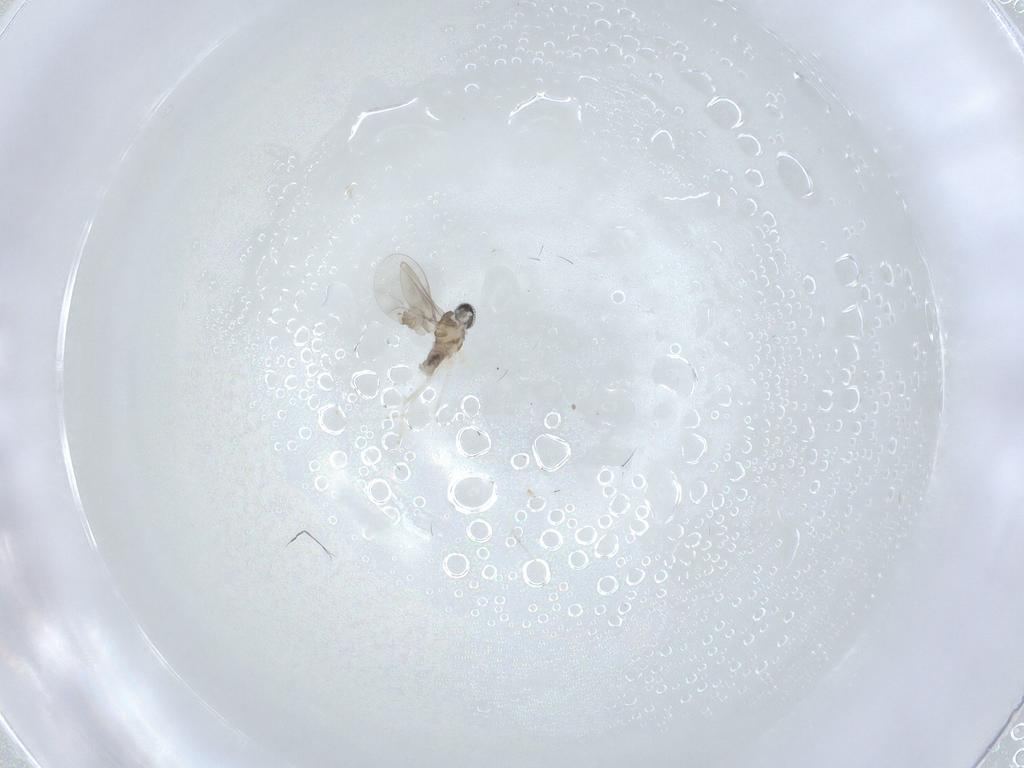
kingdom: Animalia
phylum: Arthropoda
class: Insecta
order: Diptera
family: Cecidomyiidae
